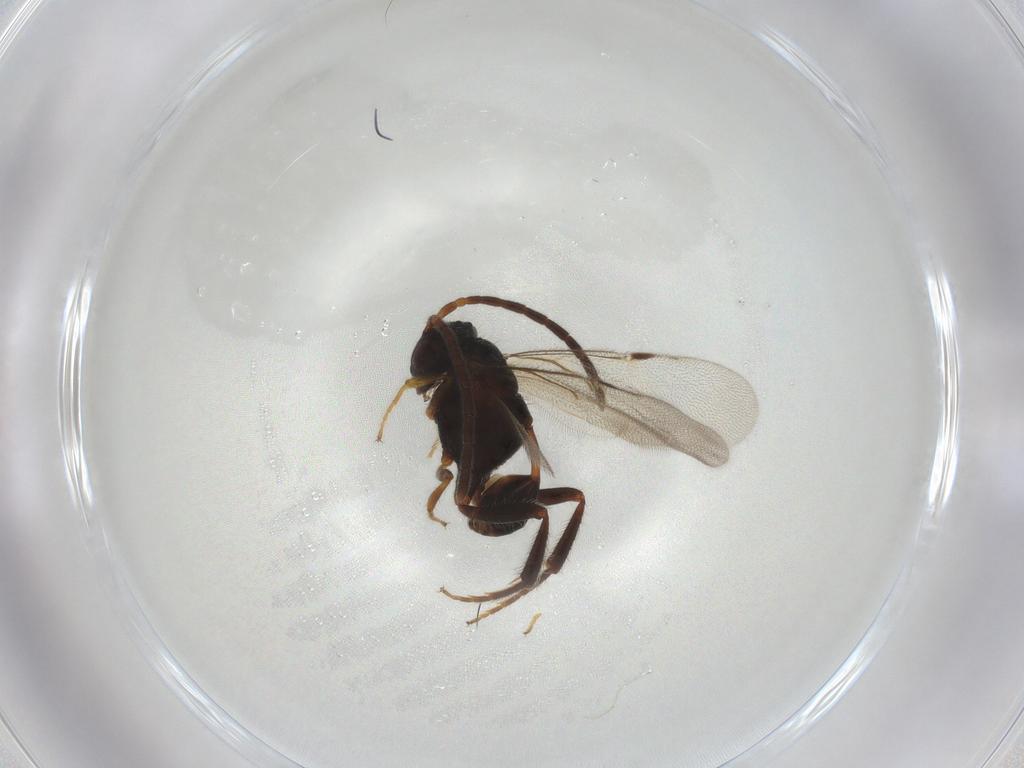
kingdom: Animalia
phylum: Arthropoda
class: Insecta
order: Hymenoptera
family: Evaniidae
